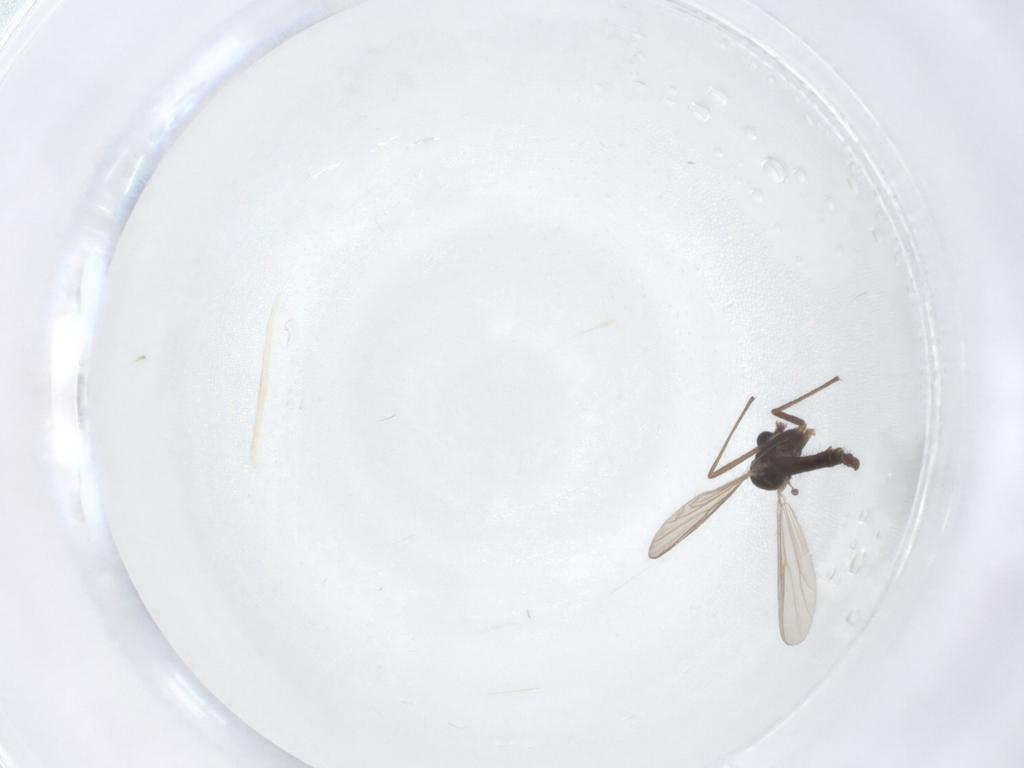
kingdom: Animalia
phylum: Arthropoda
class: Insecta
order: Diptera
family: Chironomidae
